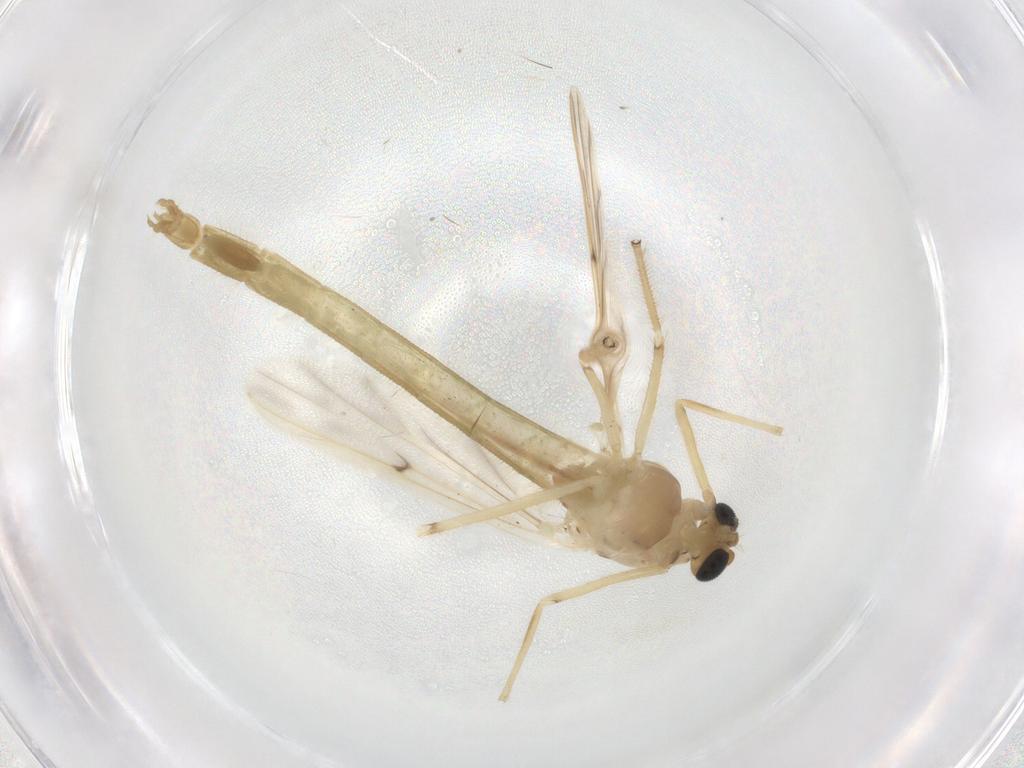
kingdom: Animalia
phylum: Arthropoda
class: Insecta
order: Diptera
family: Chironomidae
